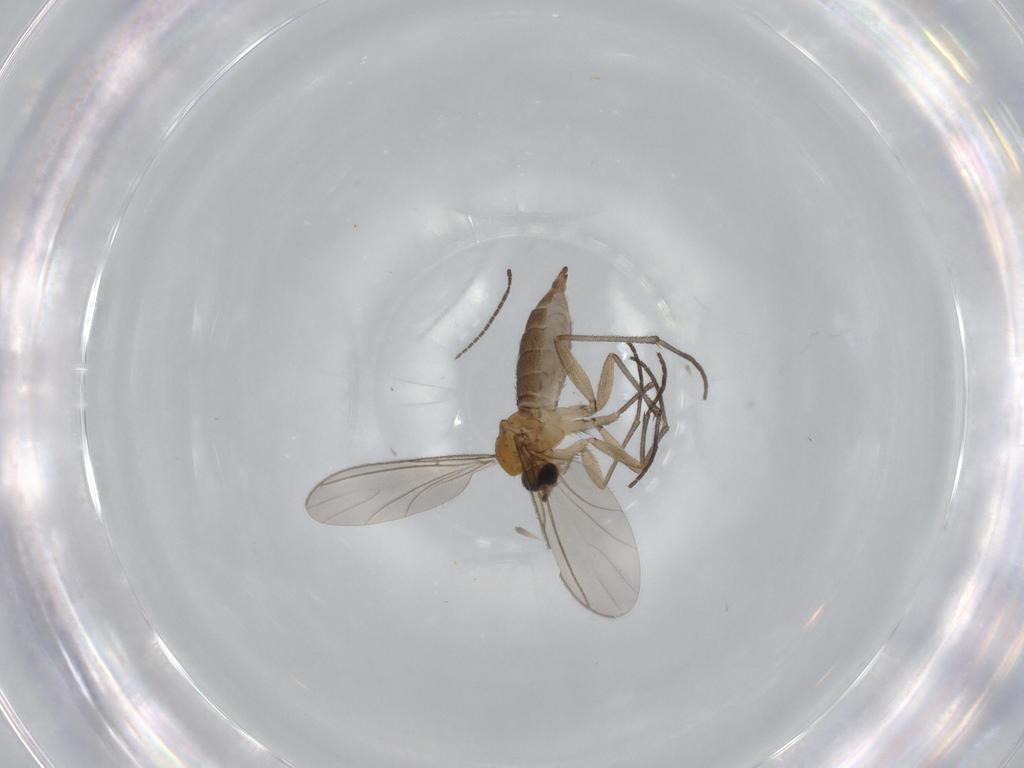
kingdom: Animalia
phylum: Arthropoda
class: Insecta
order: Diptera
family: Sciaridae
